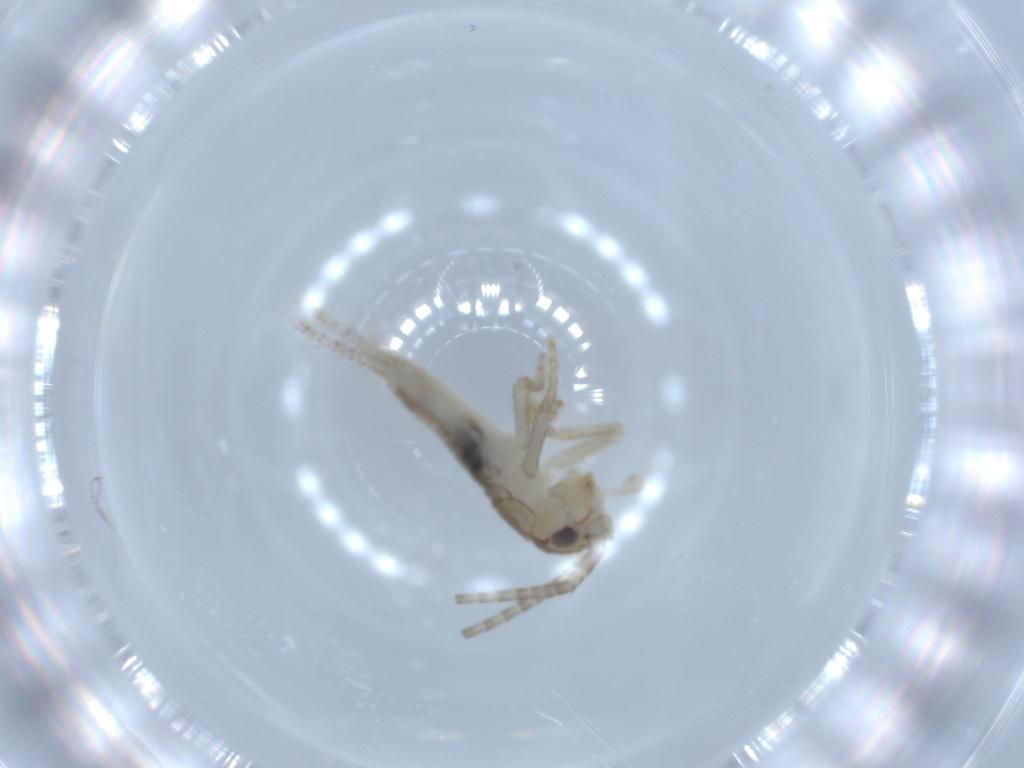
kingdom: Animalia
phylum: Arthropoda
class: Insecta
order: Orthoptera
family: Gryllidae
